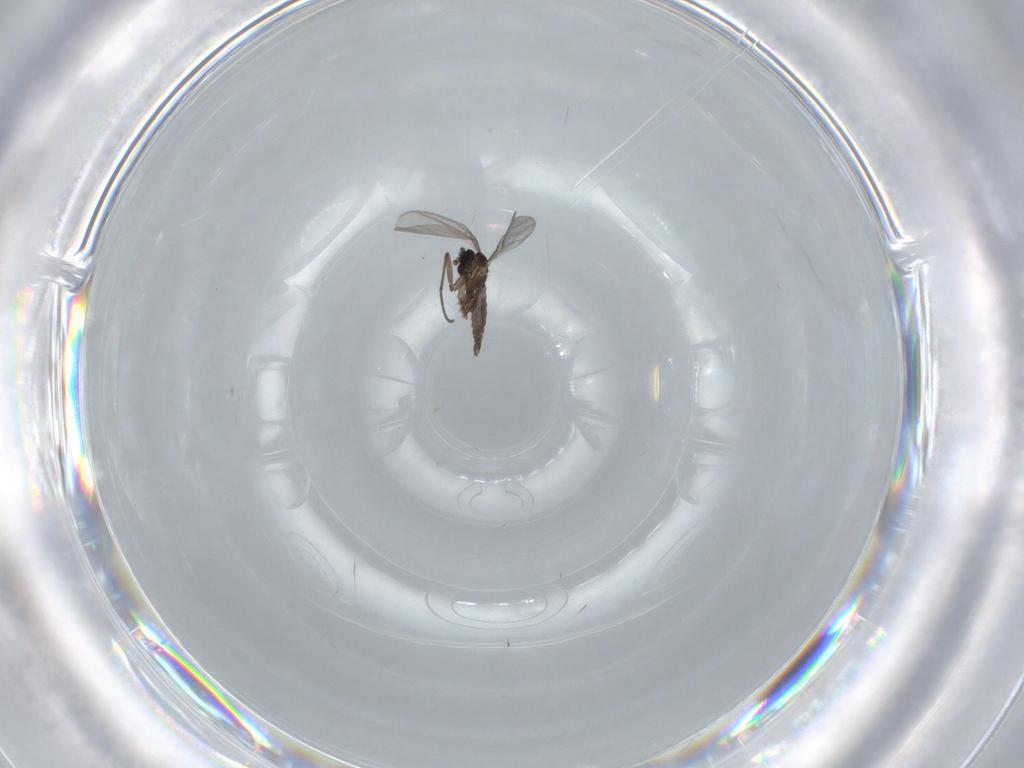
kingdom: Animalia
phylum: Arthropoda
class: Insecta
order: Diptera
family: Sciaridae
